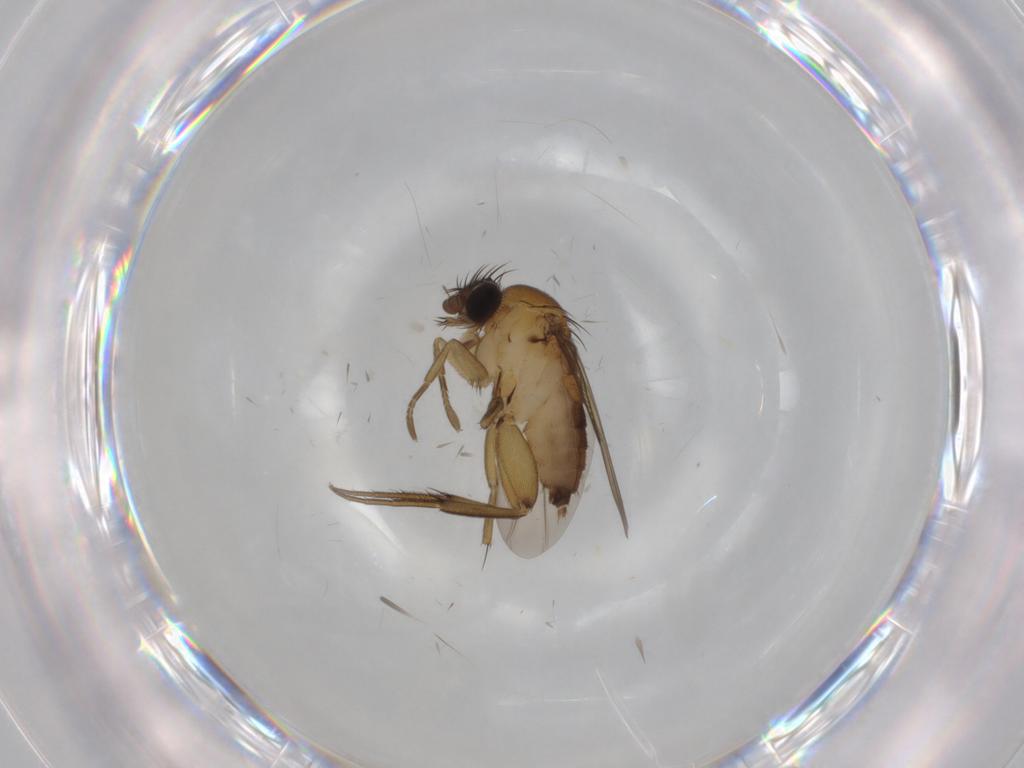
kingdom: Animalia
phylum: Arthropoda
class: Insecta
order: Diptera
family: Phoridae
